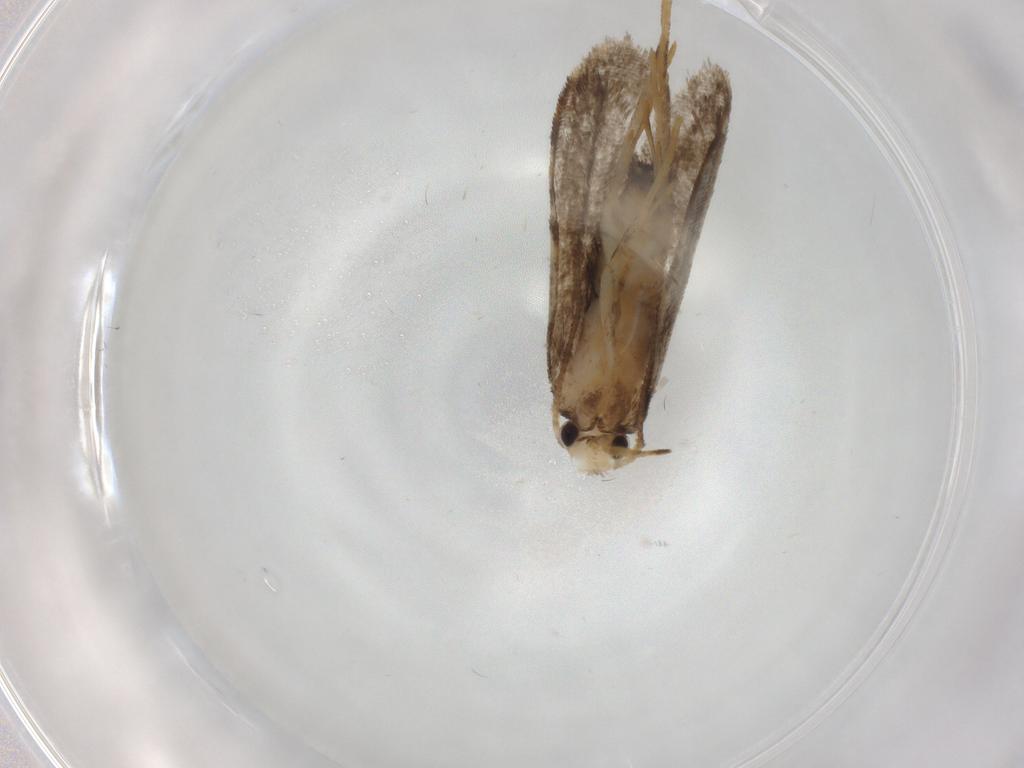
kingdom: Animalia
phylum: Arthropoda
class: Insecta
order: Lepidoptera
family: Psychidae
